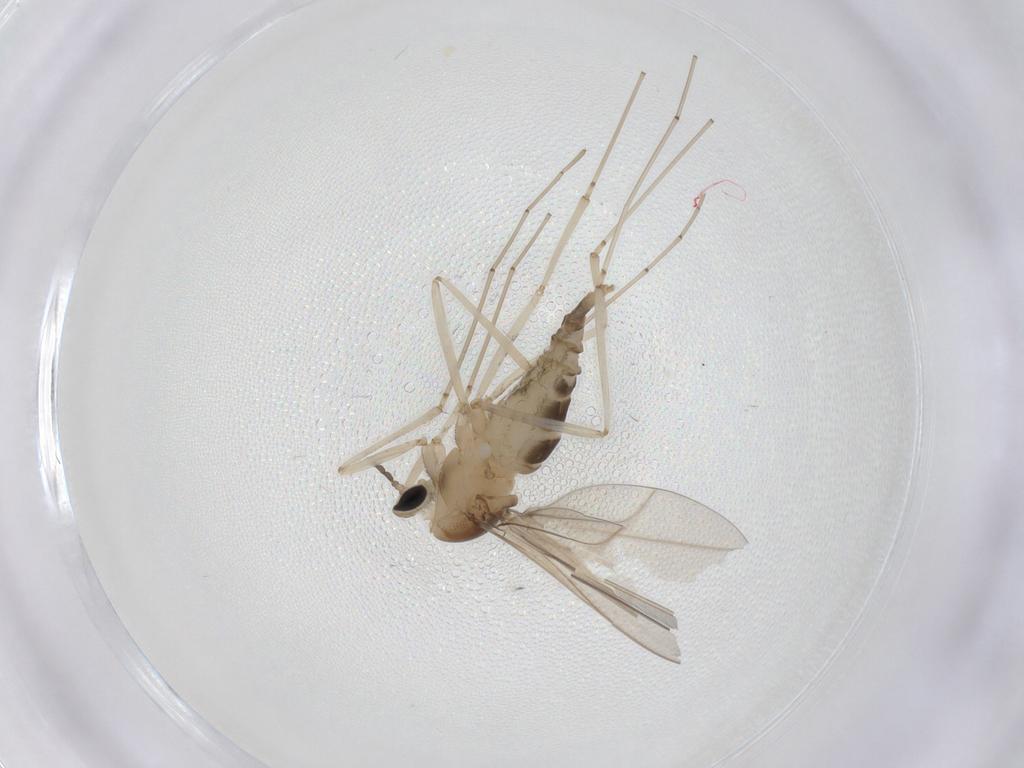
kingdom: Animalia
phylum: Arthropoda
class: Insecta
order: Diptera
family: Cecidomyiidae
